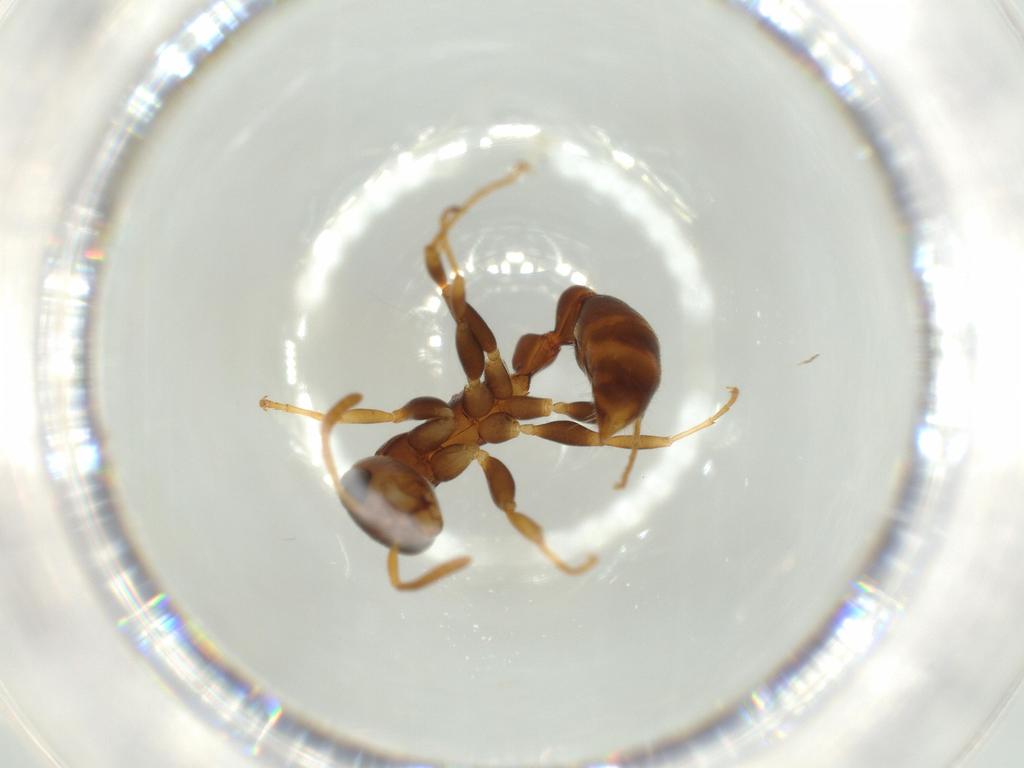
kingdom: Animalia
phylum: Arthropoda
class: Insecta
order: Hymenoptera
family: Formicidae
